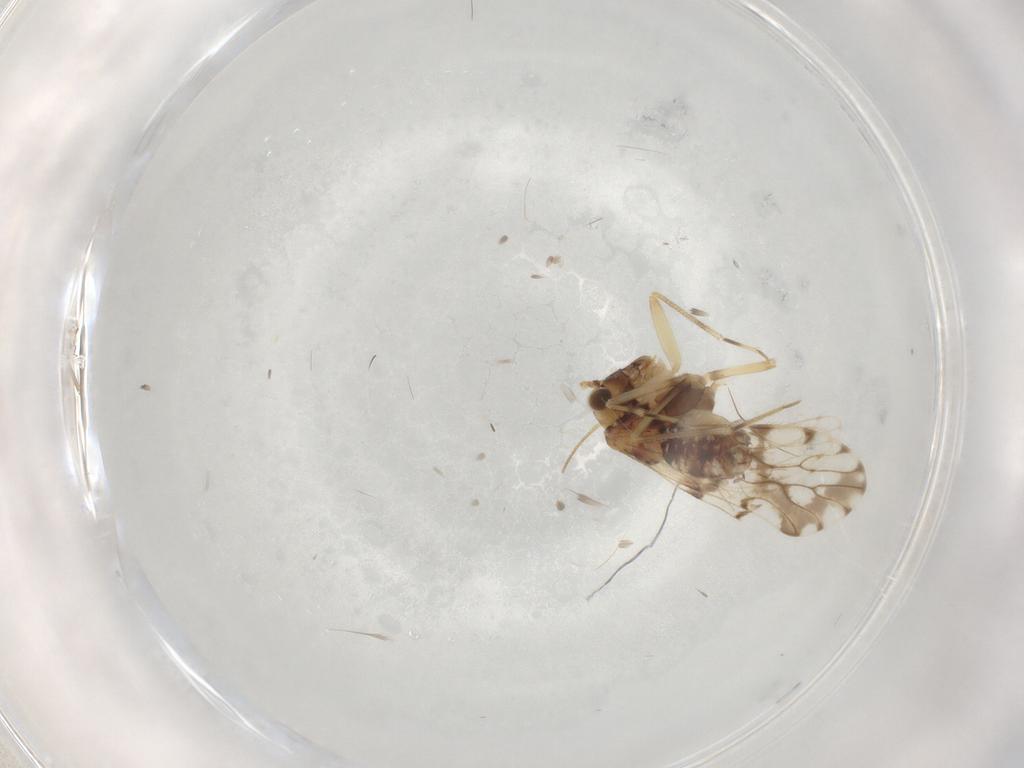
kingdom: Animalia
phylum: Arthropoda
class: Insecta
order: Psocodea
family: Epipsocidae
